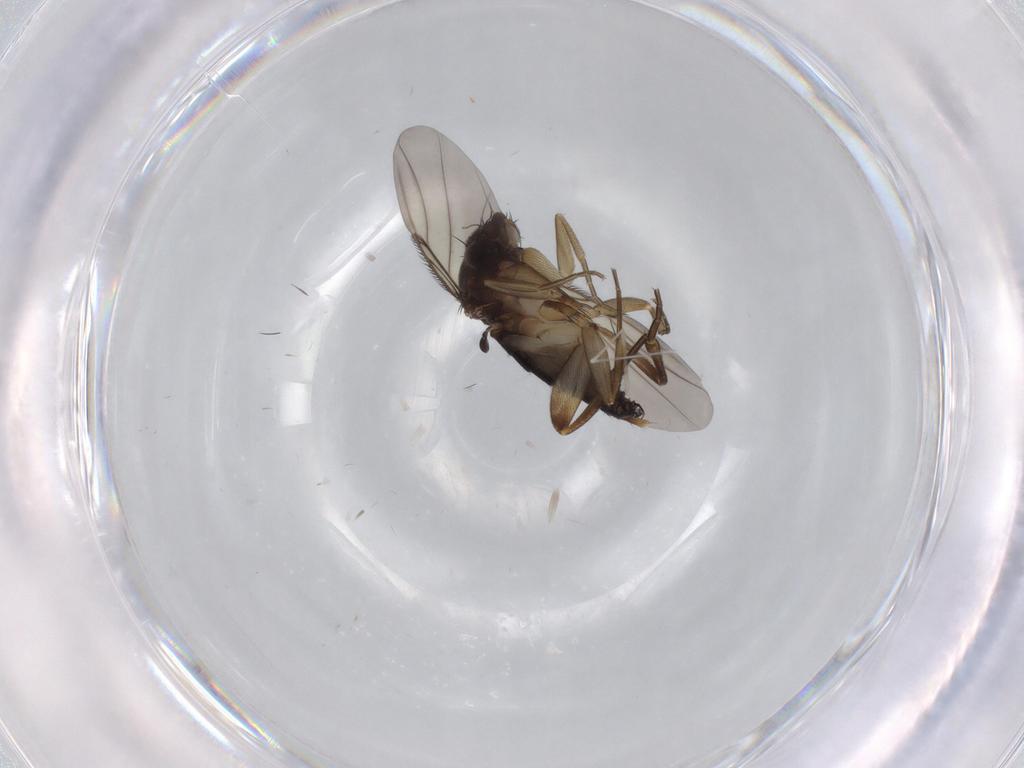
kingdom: Animalia
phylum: Arthropoda
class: Insecta
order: Diptera
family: Phoridae
